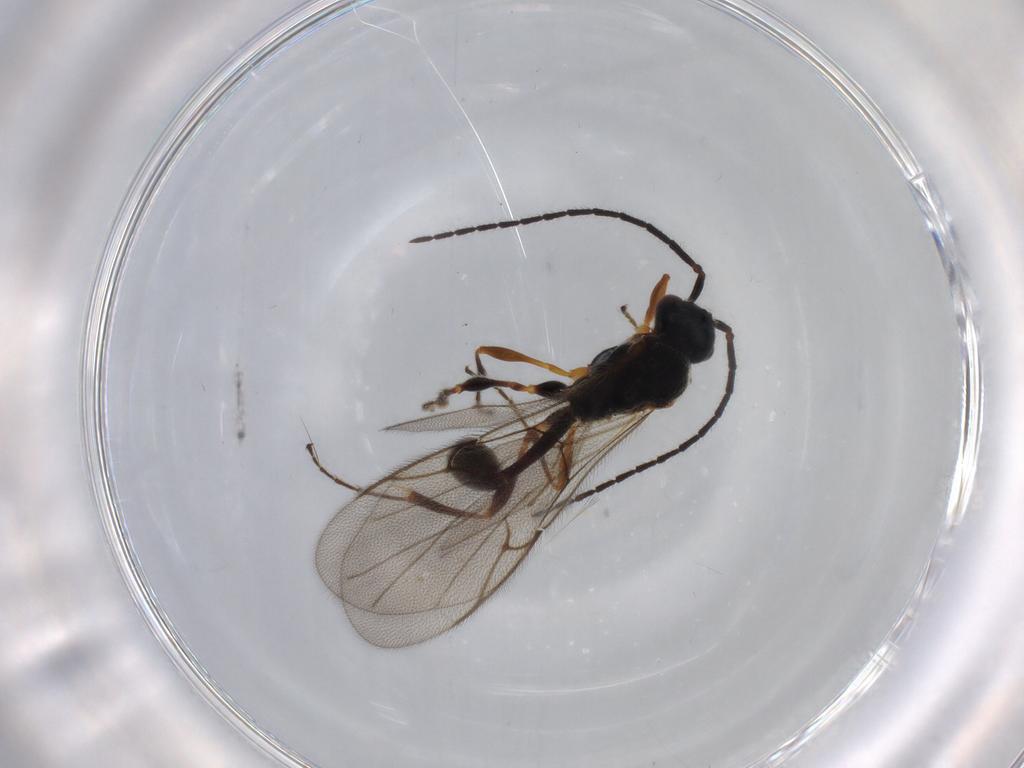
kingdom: Animalia
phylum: Arthropoda
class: Insecta
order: Hymenoptera
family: Diapriidae
